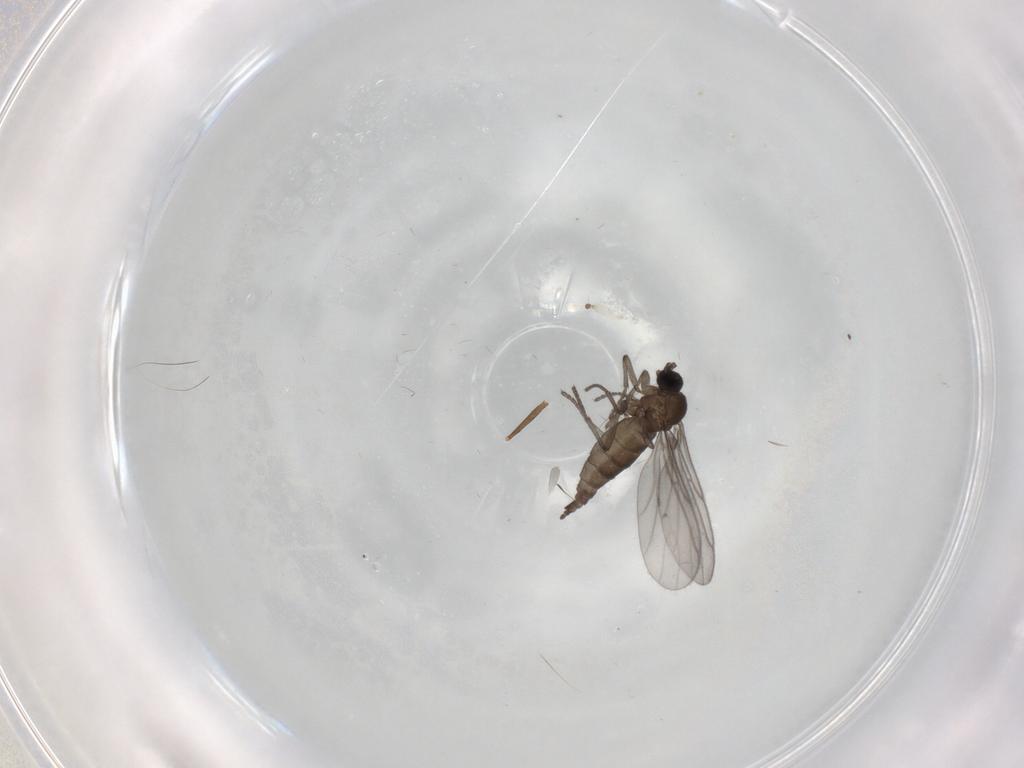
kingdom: Animalia
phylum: Arthropoda
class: Insecta
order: Diptera
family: Sciaridae
